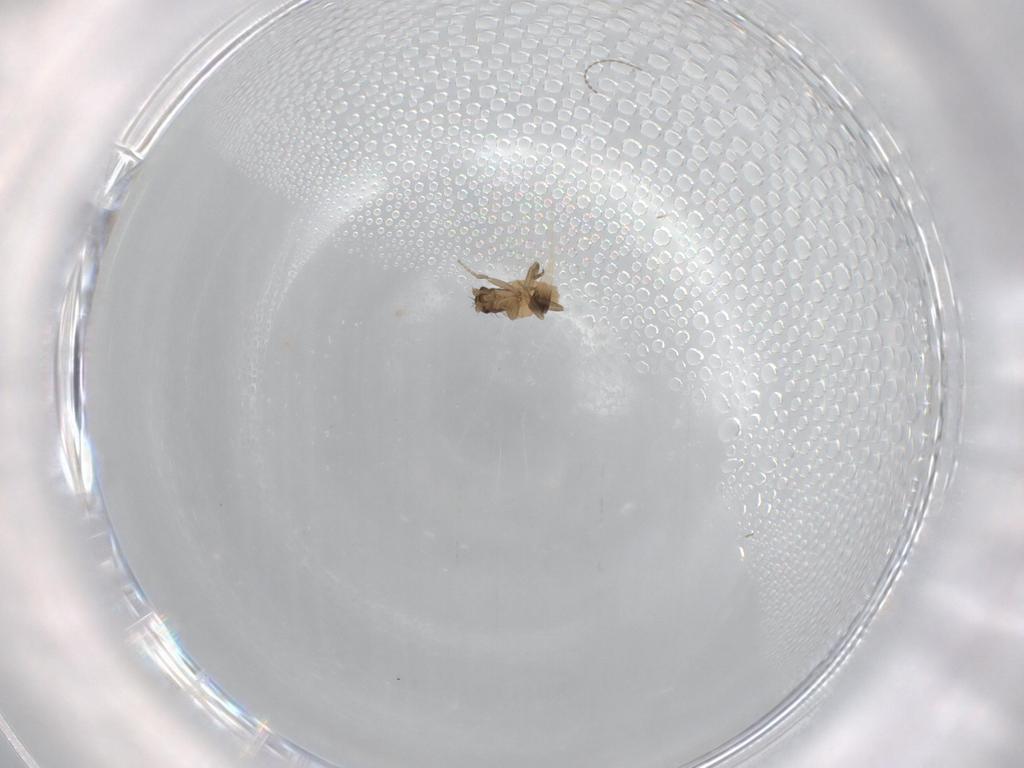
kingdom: Animalia
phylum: Arthropoda
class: Insecta
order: Diptera
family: Phoridae
